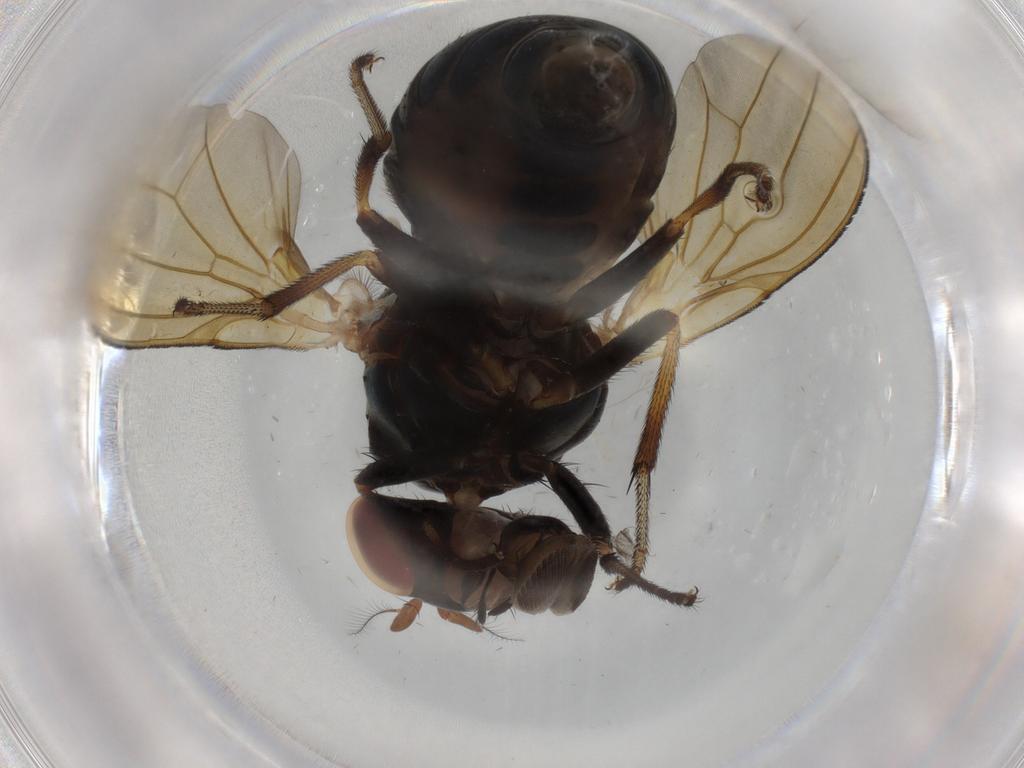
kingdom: Animalia
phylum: Arthropoda
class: Insecta
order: Diptera
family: Lauxaniidae
